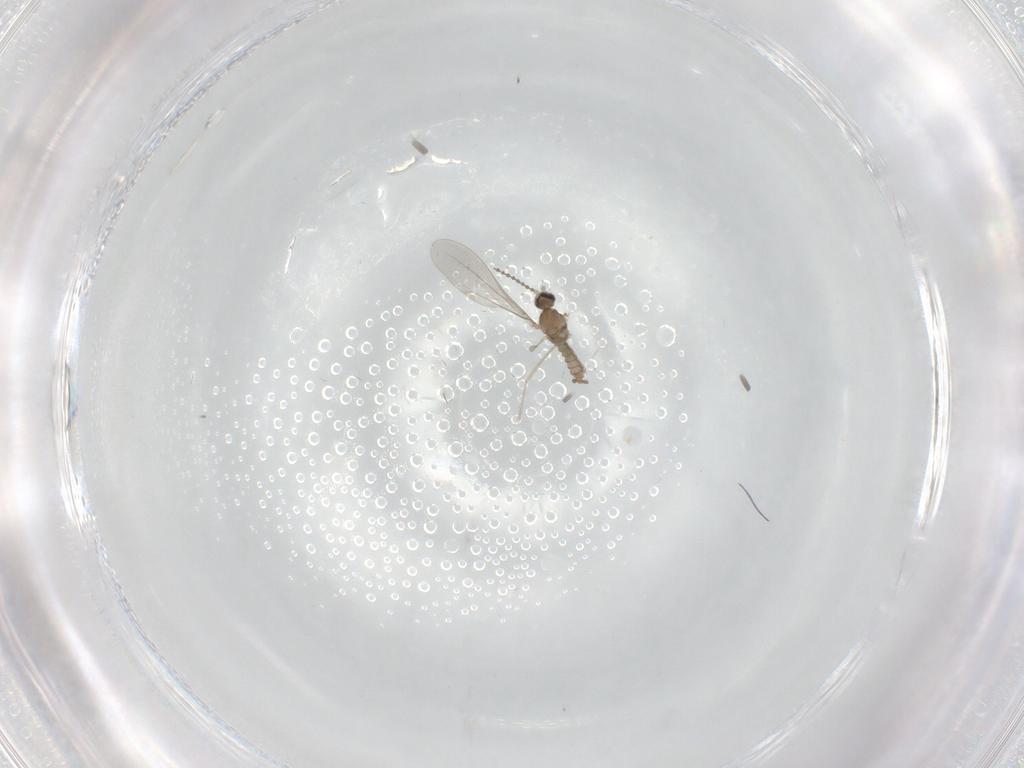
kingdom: Animalia
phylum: Arthropoda
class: Insecta
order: Diptera
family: Chironomidae
